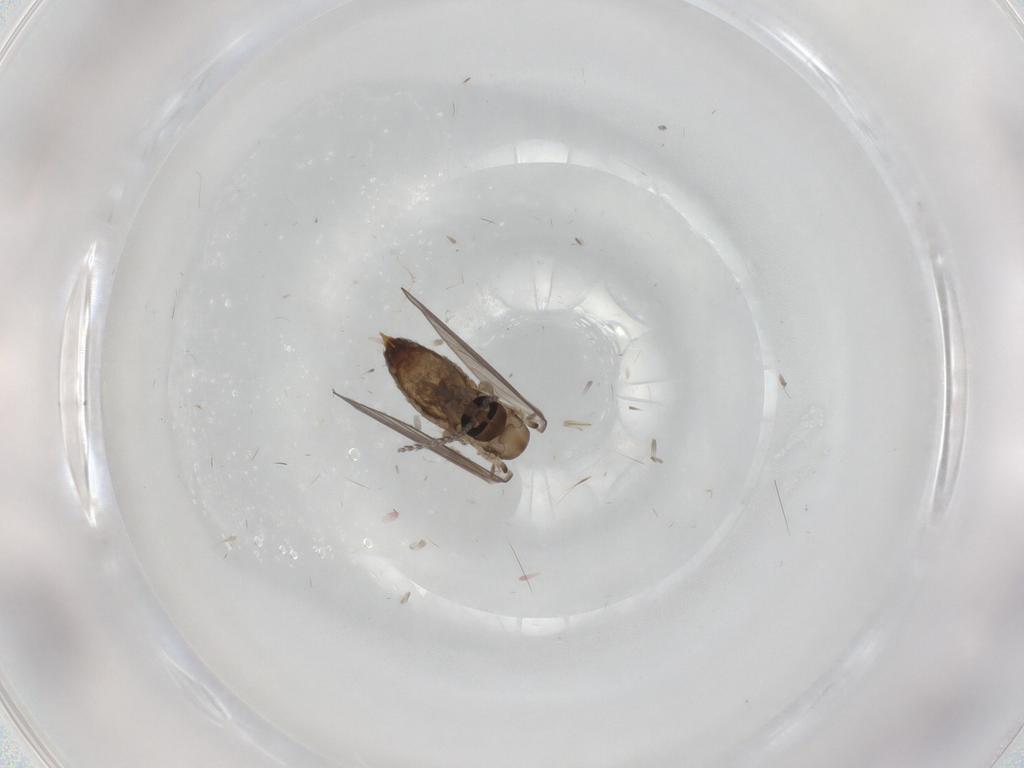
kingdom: Animalia
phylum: Arthropoda
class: Insecta
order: Diptera
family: Psychodidae
